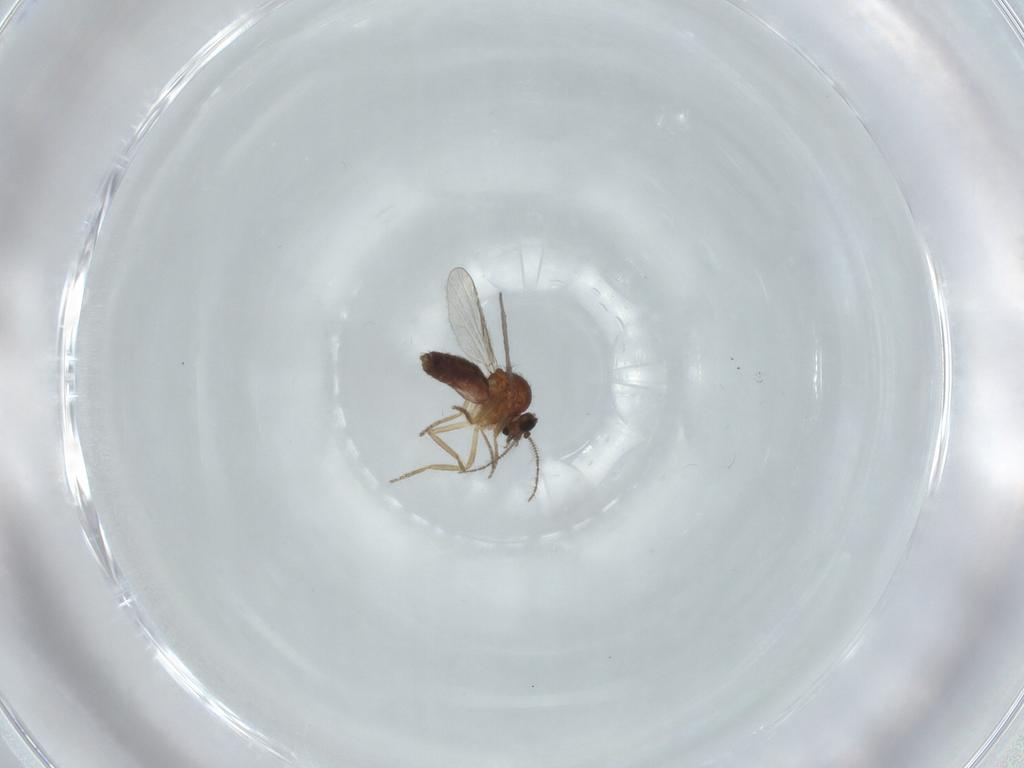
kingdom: Animalia
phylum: Arthropoda
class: Insecta
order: Diptera
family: Ceratopogonidae
